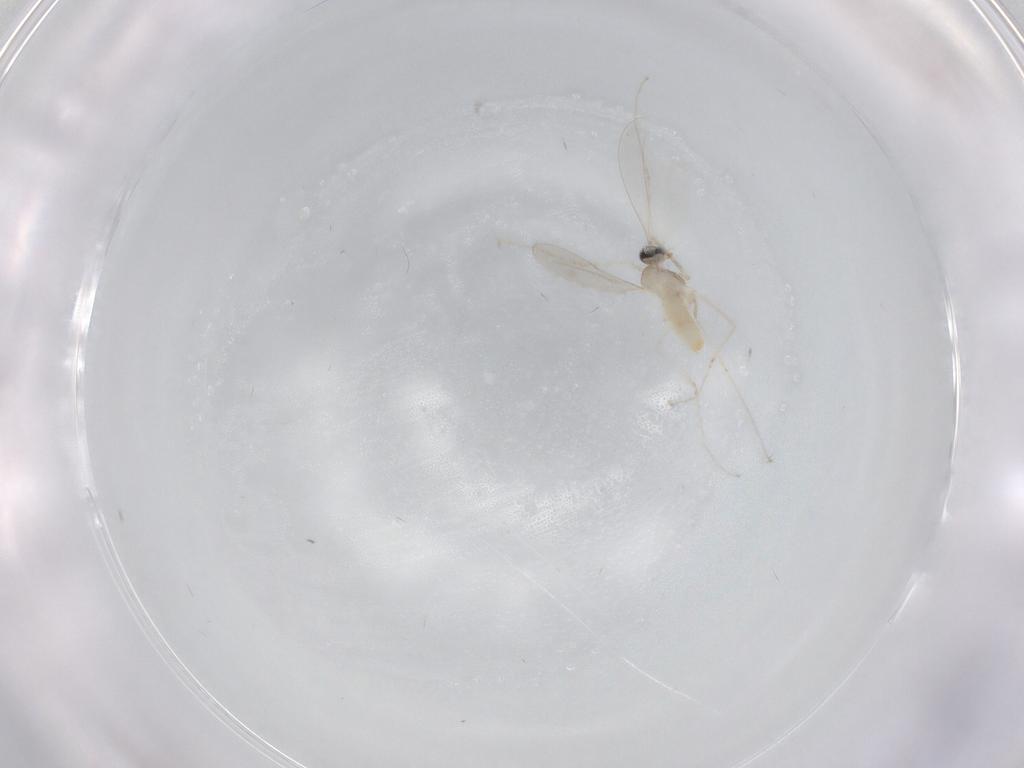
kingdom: Animalia
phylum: Arthropoda
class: Insecta
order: Diptera
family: Cecidomyiidae
